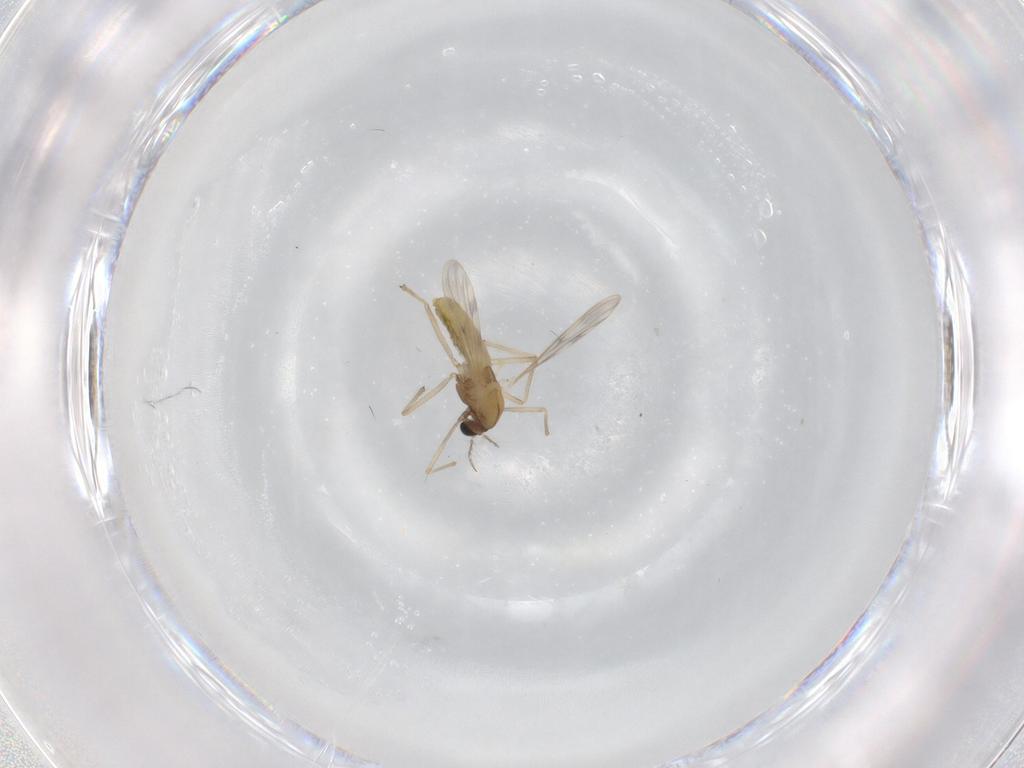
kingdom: Animalia
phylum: Arthropoda
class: Insecta
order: Diptera
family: Chironomidae
